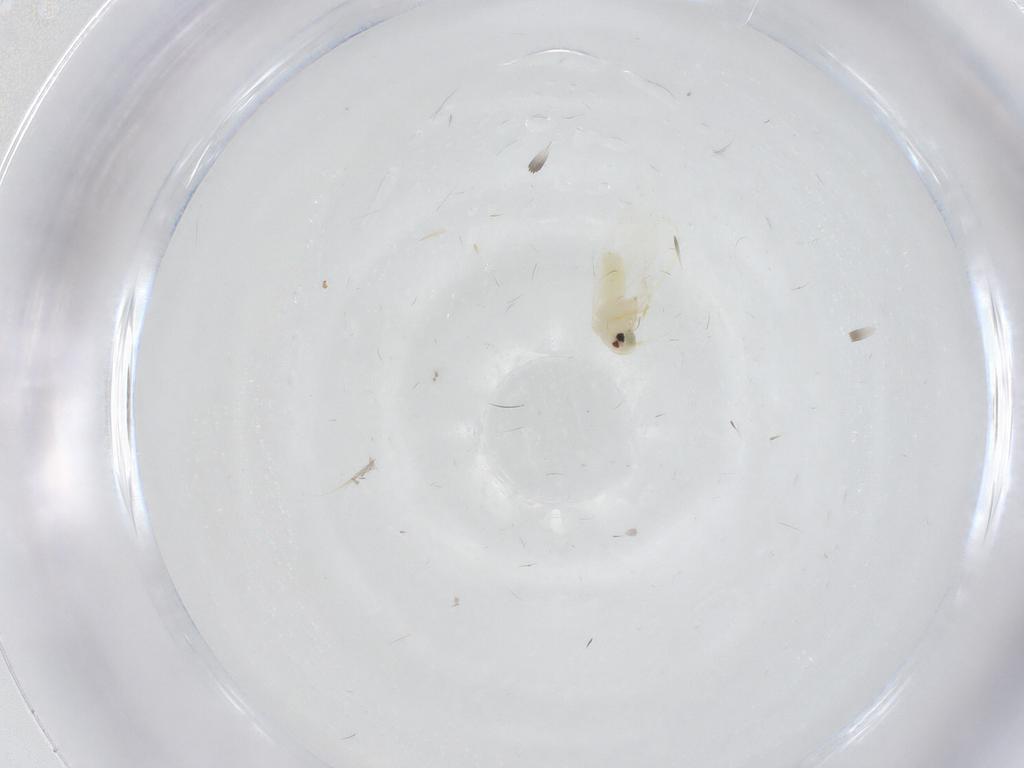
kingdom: Animalia
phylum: Arthropoda
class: Insecta
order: Hemiptera
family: Aleyrodidae
